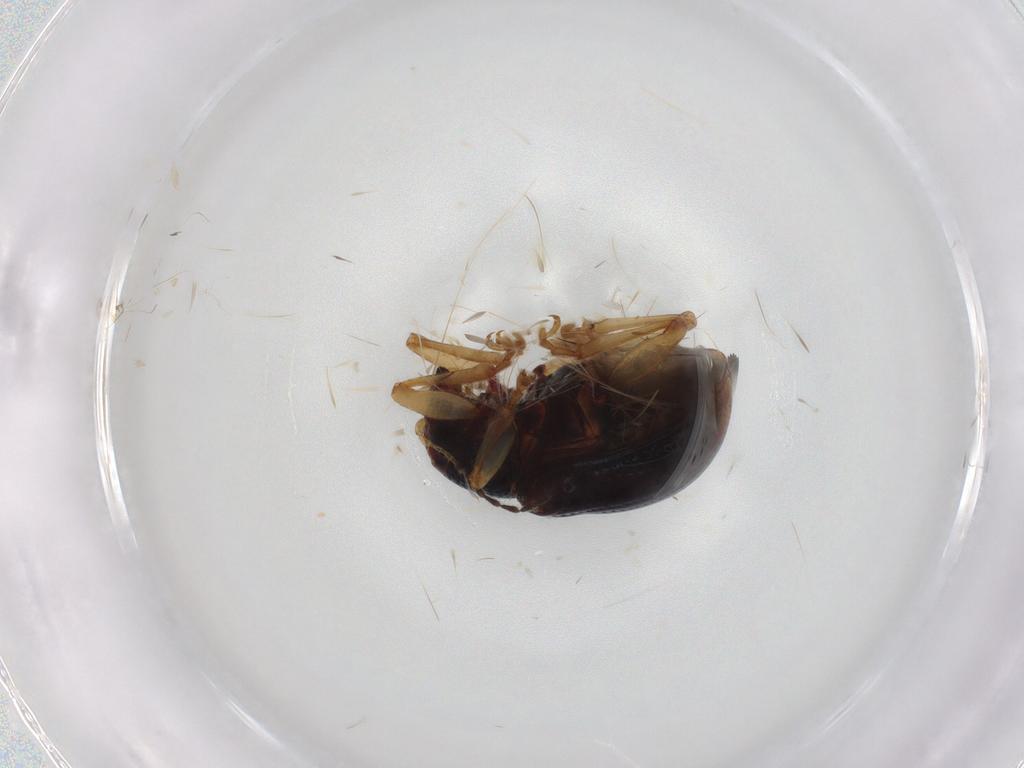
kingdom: Animalia
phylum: Arthropoda
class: Insecta
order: Coleoptera
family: Chrysomelidae
